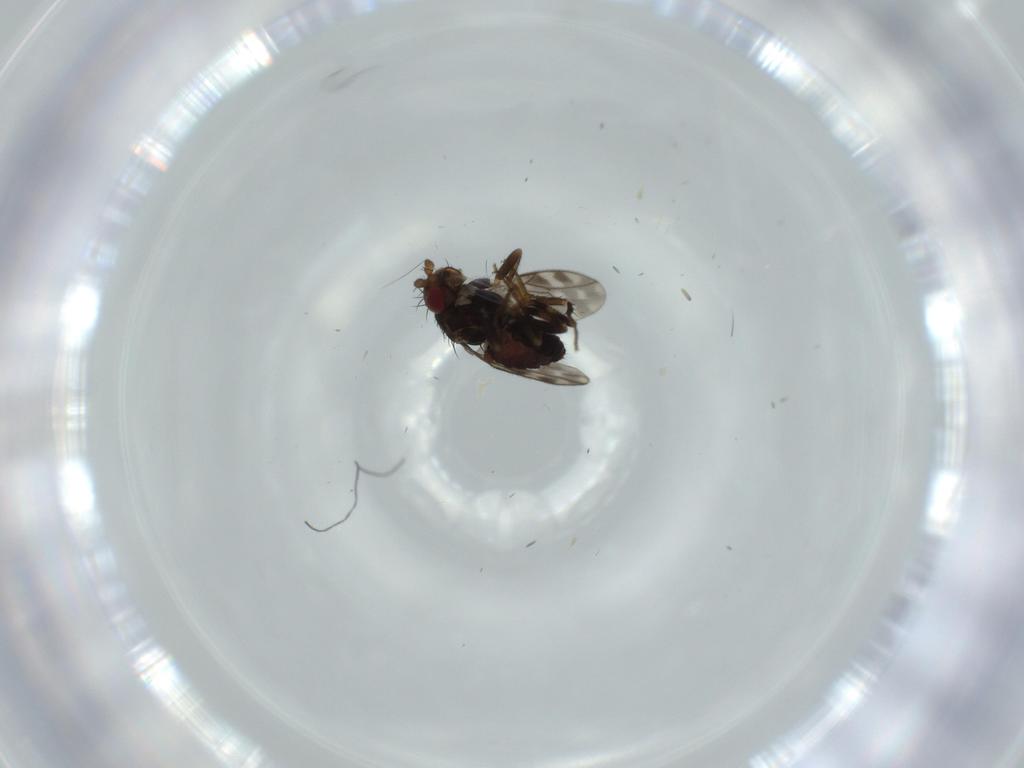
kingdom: Animalia
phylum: Arthropoda
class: Insecta
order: Diptera
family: Sphaeroceridae
